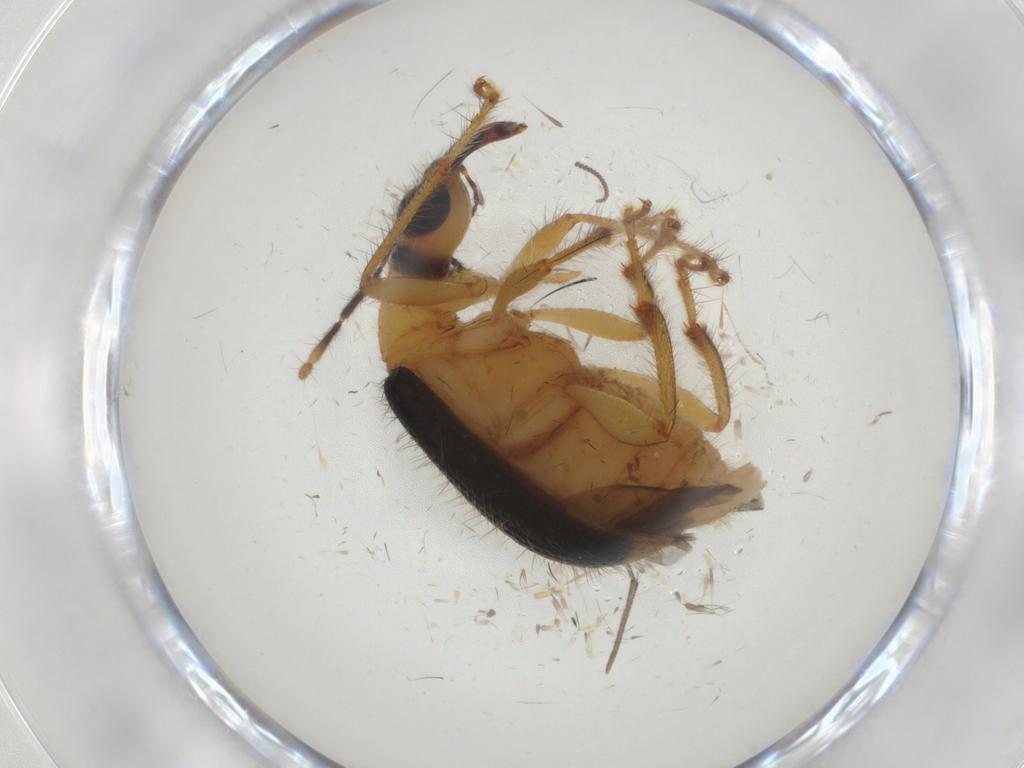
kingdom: Animalia
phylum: Arthropoda
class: Insecta
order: Coleoptera
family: Attelabidae
